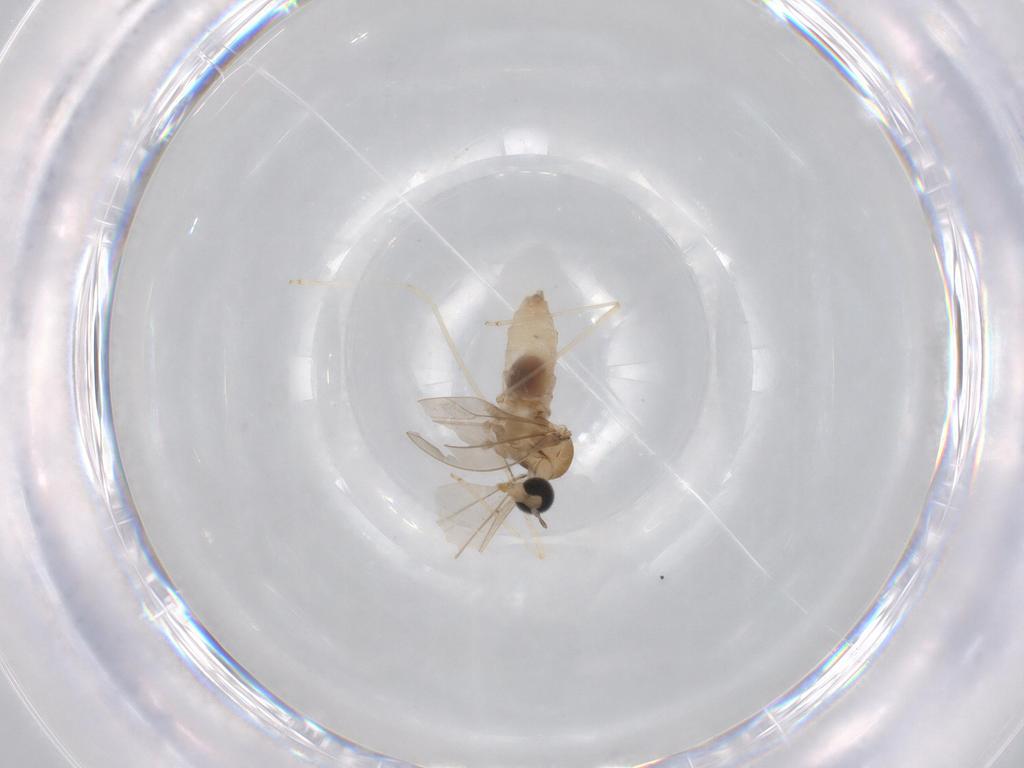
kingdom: Animalia
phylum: Arthropoda
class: Insecta
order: Diptera
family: Cecidomyiidae
